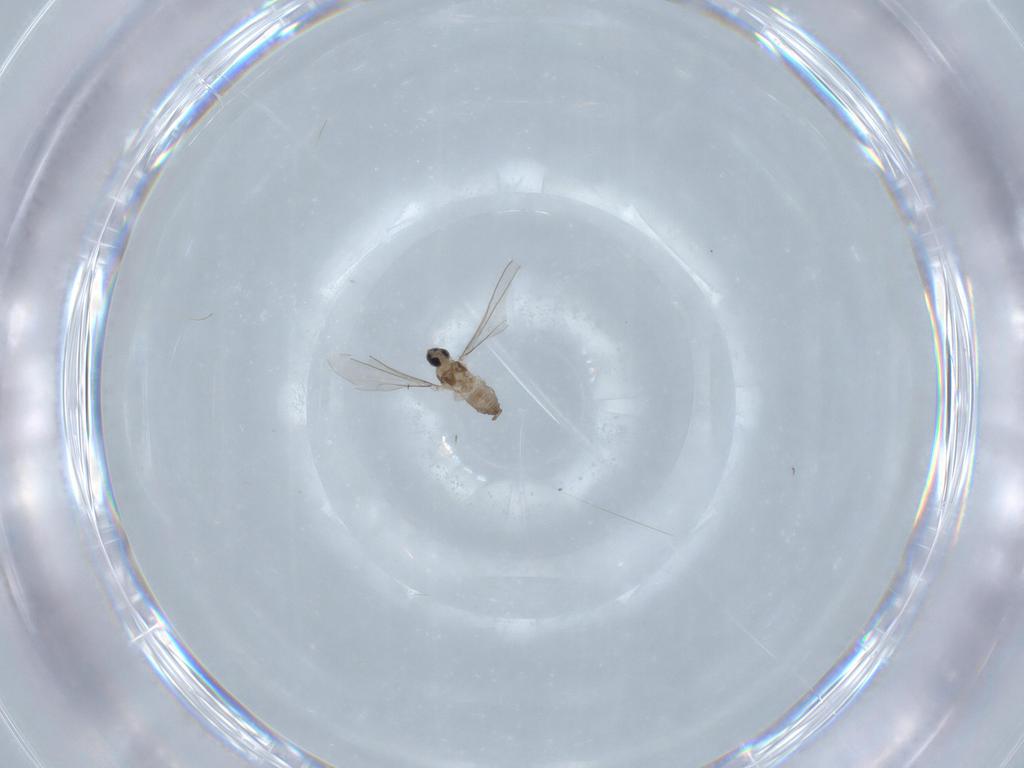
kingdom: Animalia
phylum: Arthropoda
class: Insecta
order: Diptera
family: Cecidomyiidae
